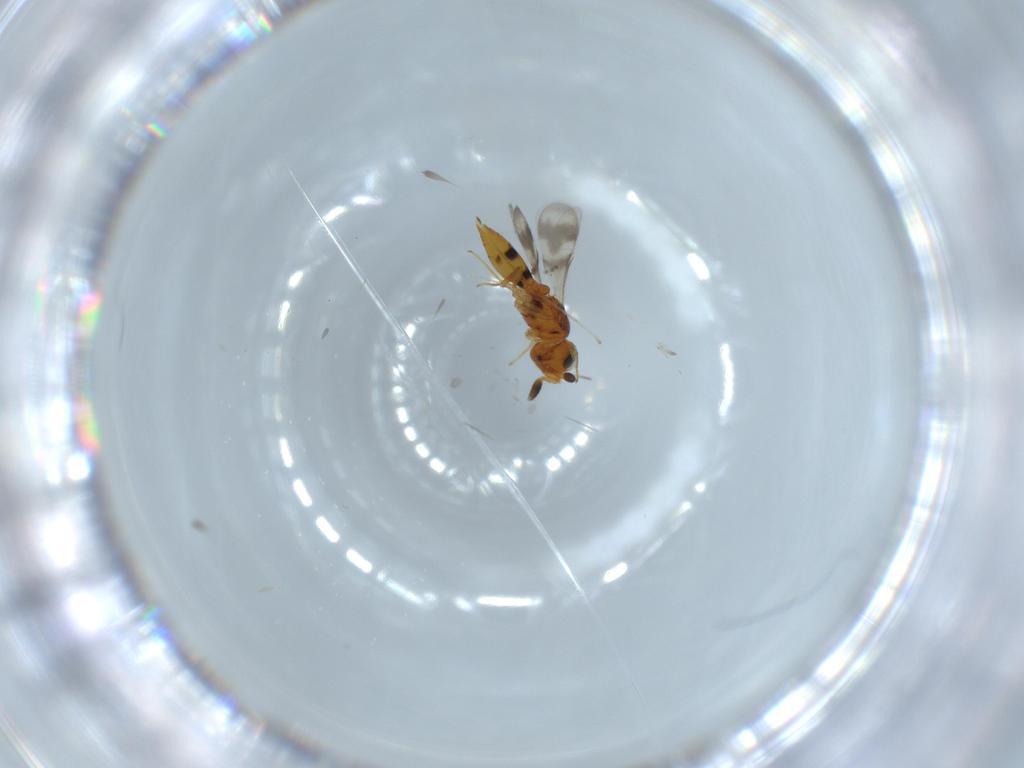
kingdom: Animalia
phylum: Arthropoda
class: Insecta
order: Hymenoptera
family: Scelionidae
